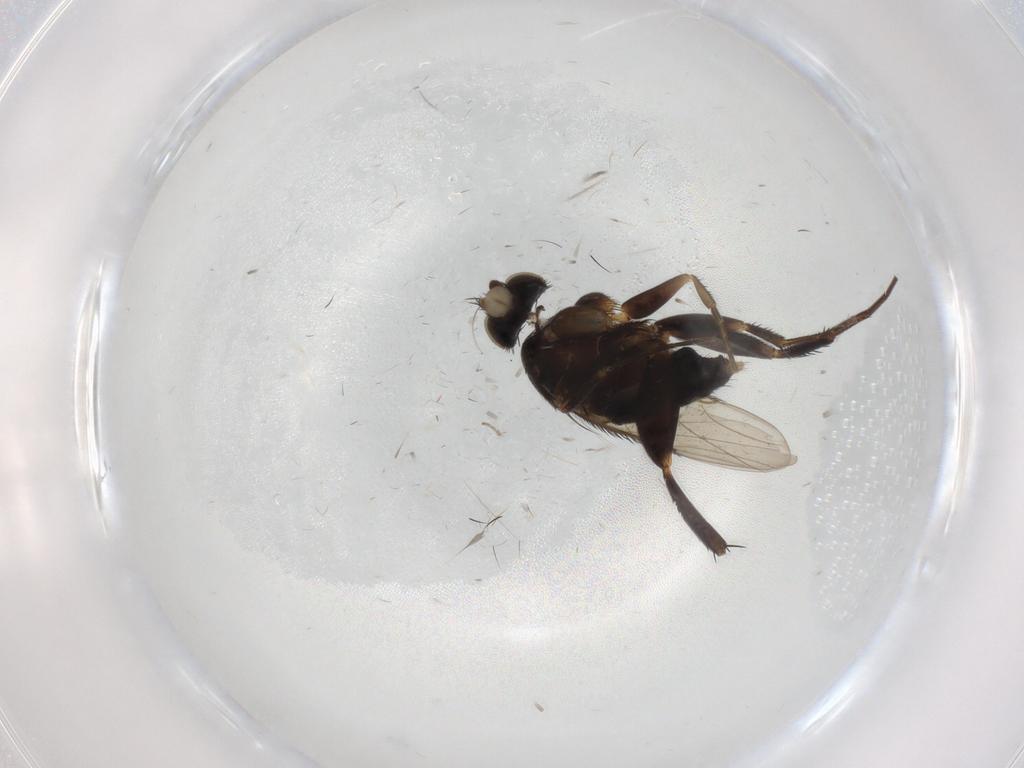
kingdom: Animalia
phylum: Arthropoda
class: Insecta
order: Diptera
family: Phoridae
